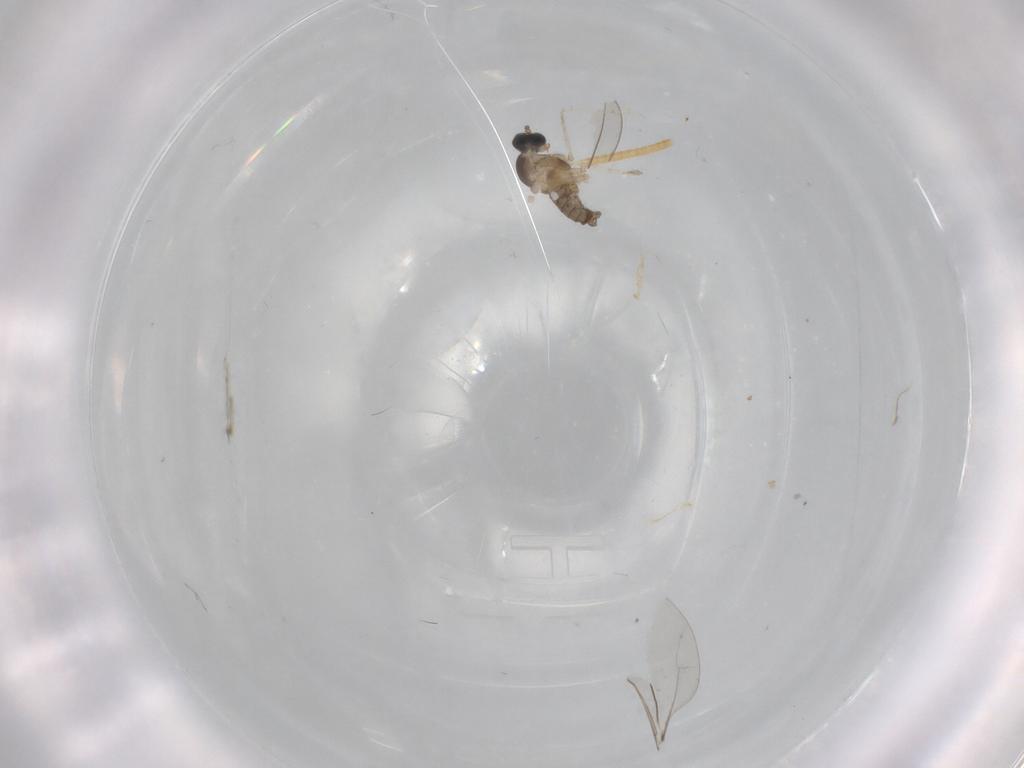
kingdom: Animalia
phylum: Arthropoda
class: Insecta
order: Diptera
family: Cecidomyiidae
